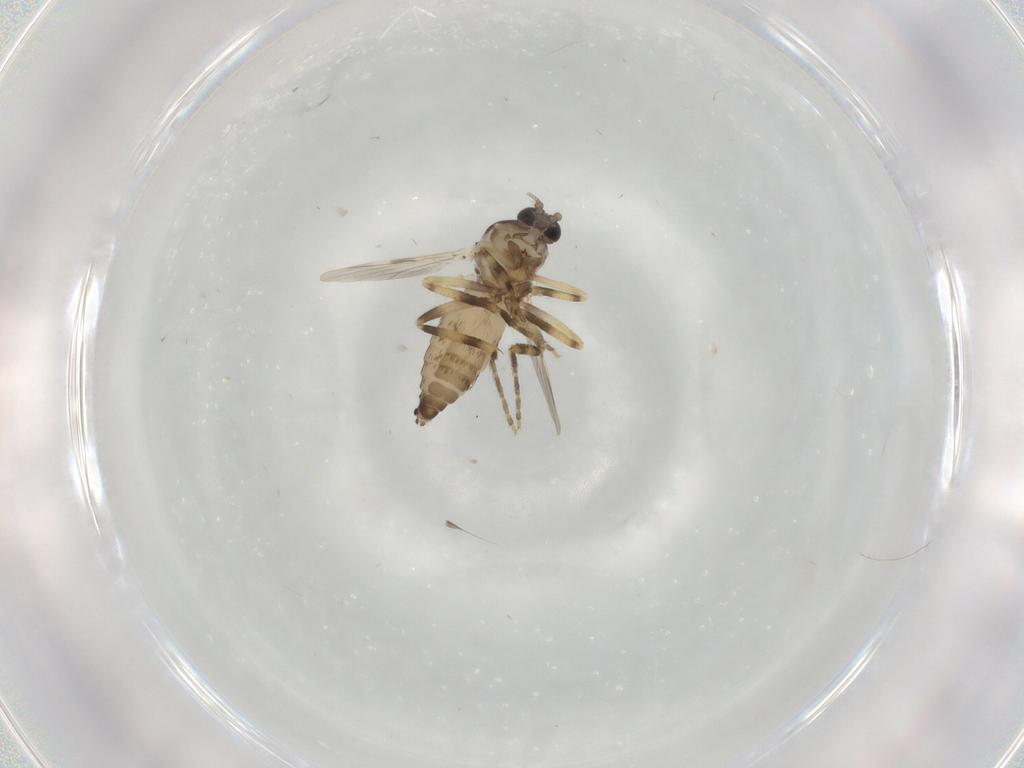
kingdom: Animalia
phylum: Arthropoda
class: Insecta
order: Diptera
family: Ceratopogonidae
